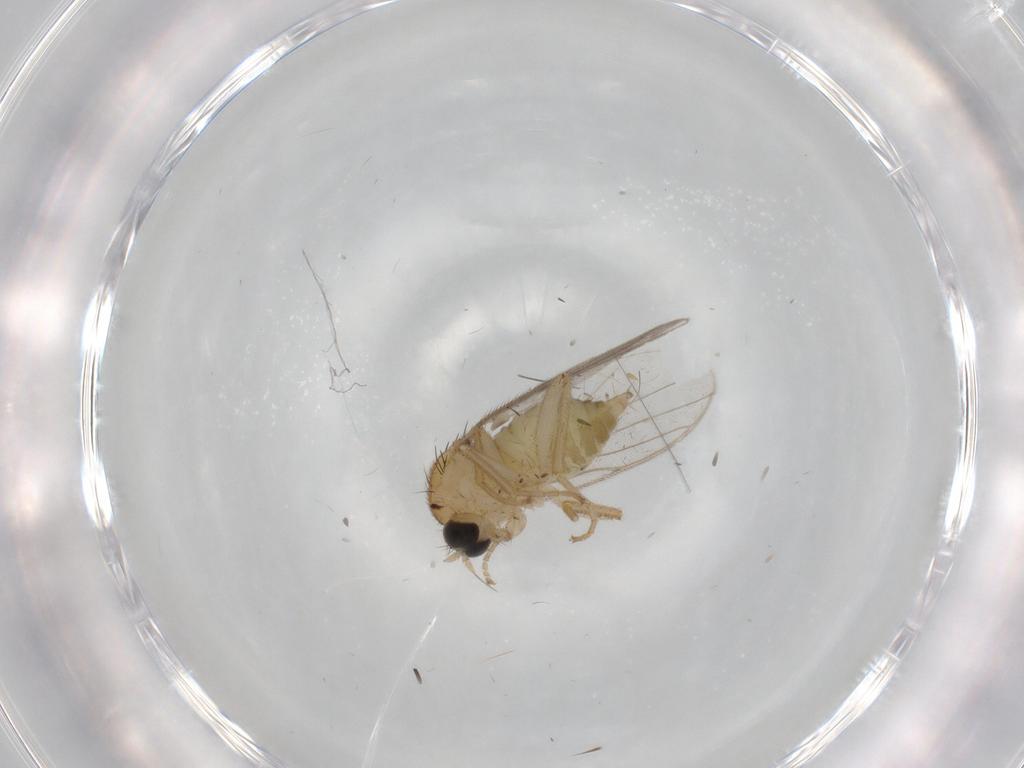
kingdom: Animalia
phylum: Arthropoda
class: Insecta
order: Diptera
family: Hybotidae
